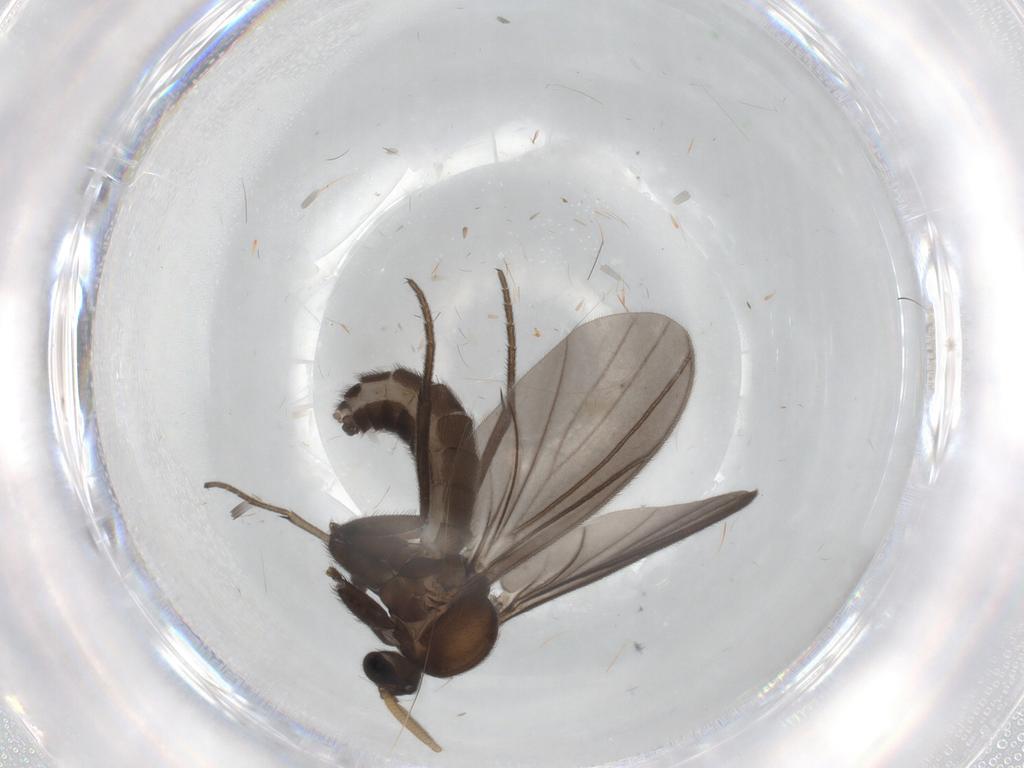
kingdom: Animalia
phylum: Arthropoda
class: Insecta
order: Diptera
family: Cecidomyiidae
